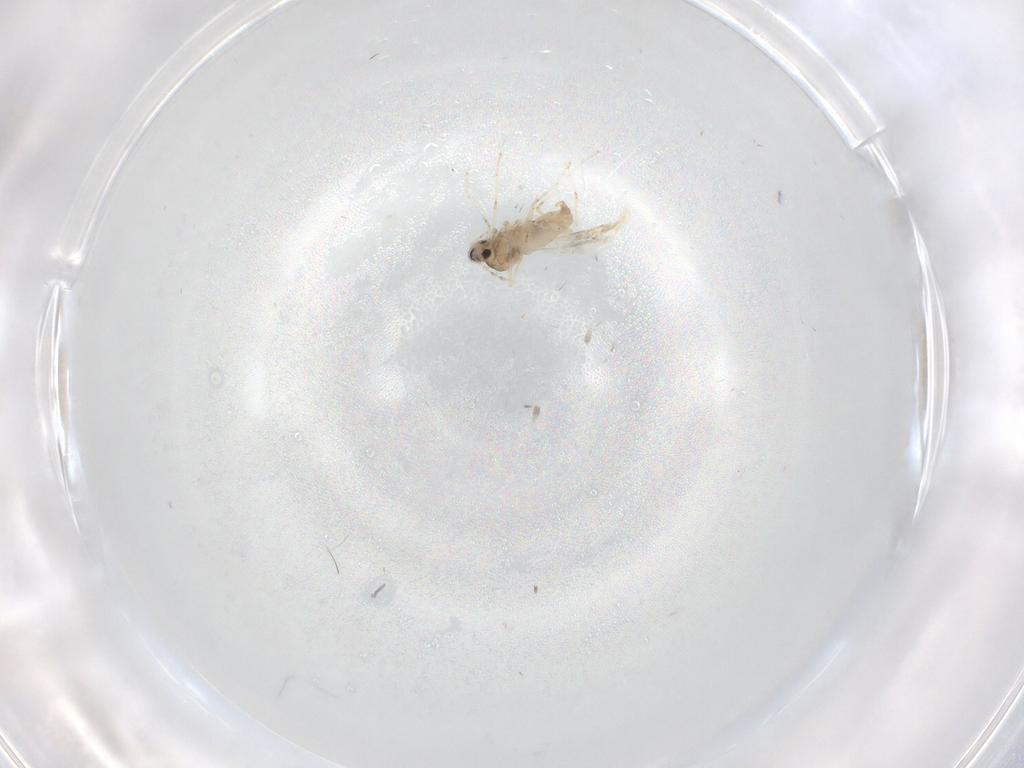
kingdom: Animalia
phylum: Arthropoda
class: Insecta
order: Diptera
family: Cecidomyiidae
